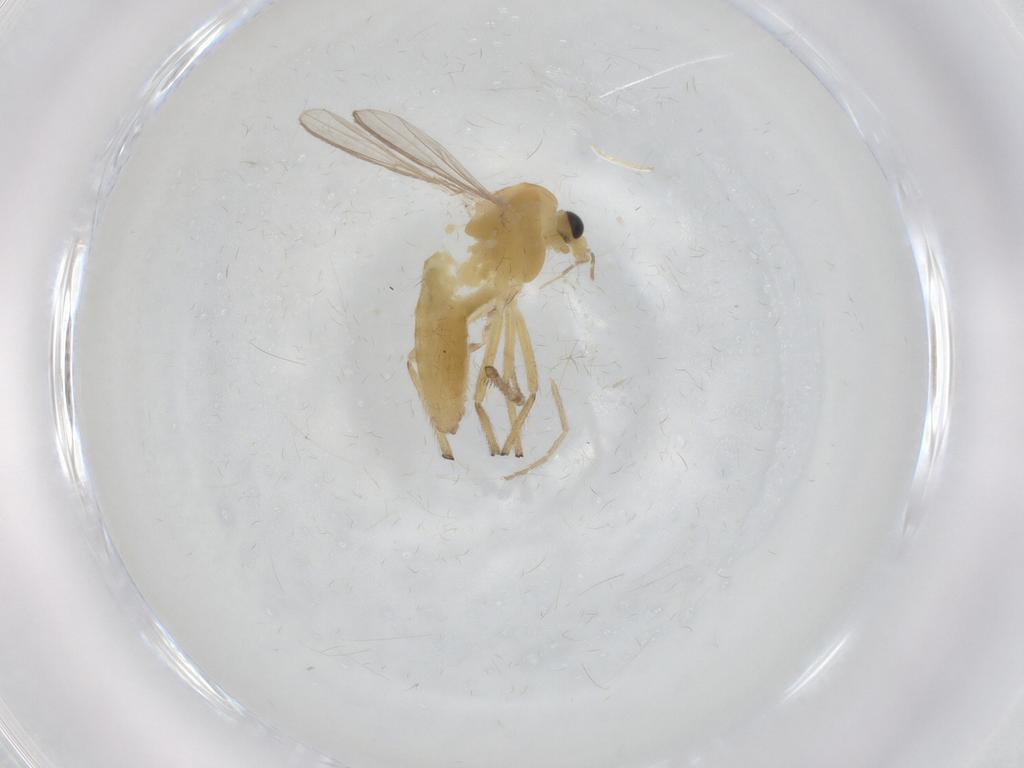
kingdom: Animalia
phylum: Arthropoda
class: Insecta
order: Diptera
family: Chironomidae
